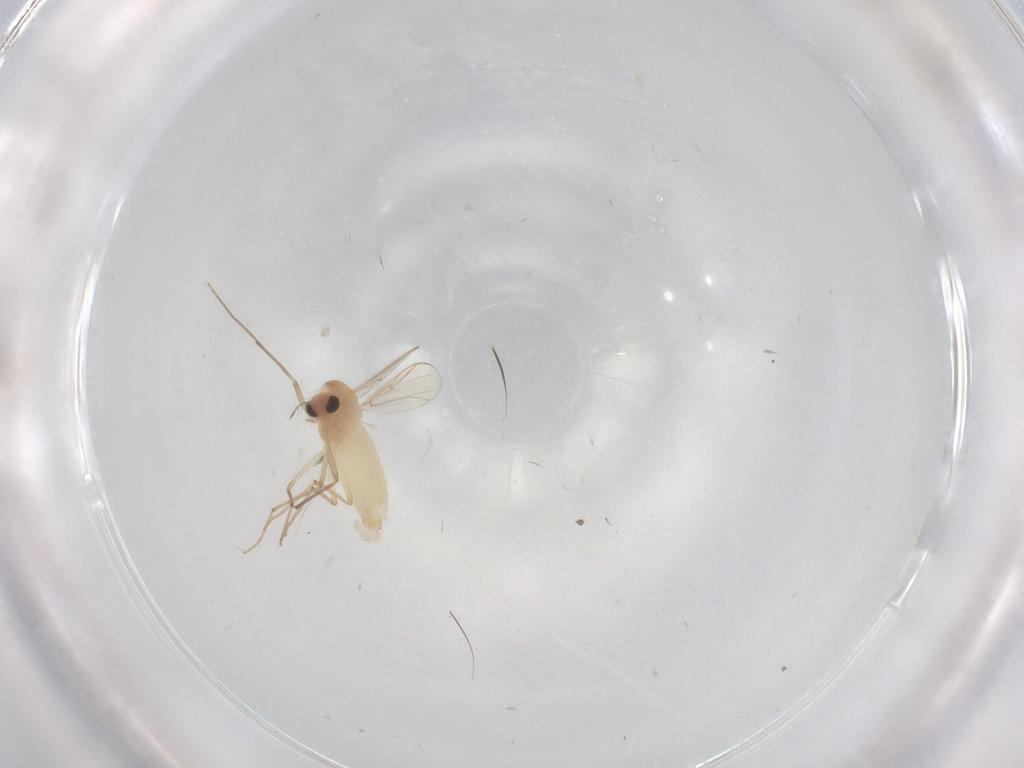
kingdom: Animalia
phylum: Arthropoda
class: Insecta
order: Diptera
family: Chironomidae
